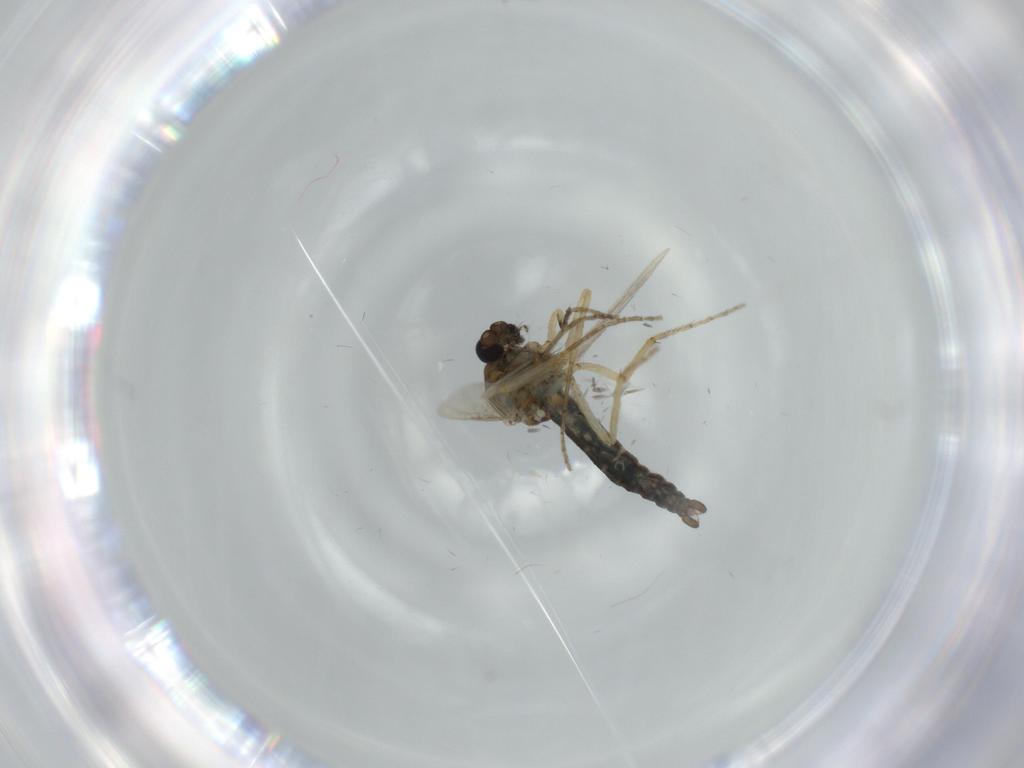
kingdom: Animalia
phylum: Arthropoda
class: Insecta
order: Diptera
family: Ceratopogonidae
